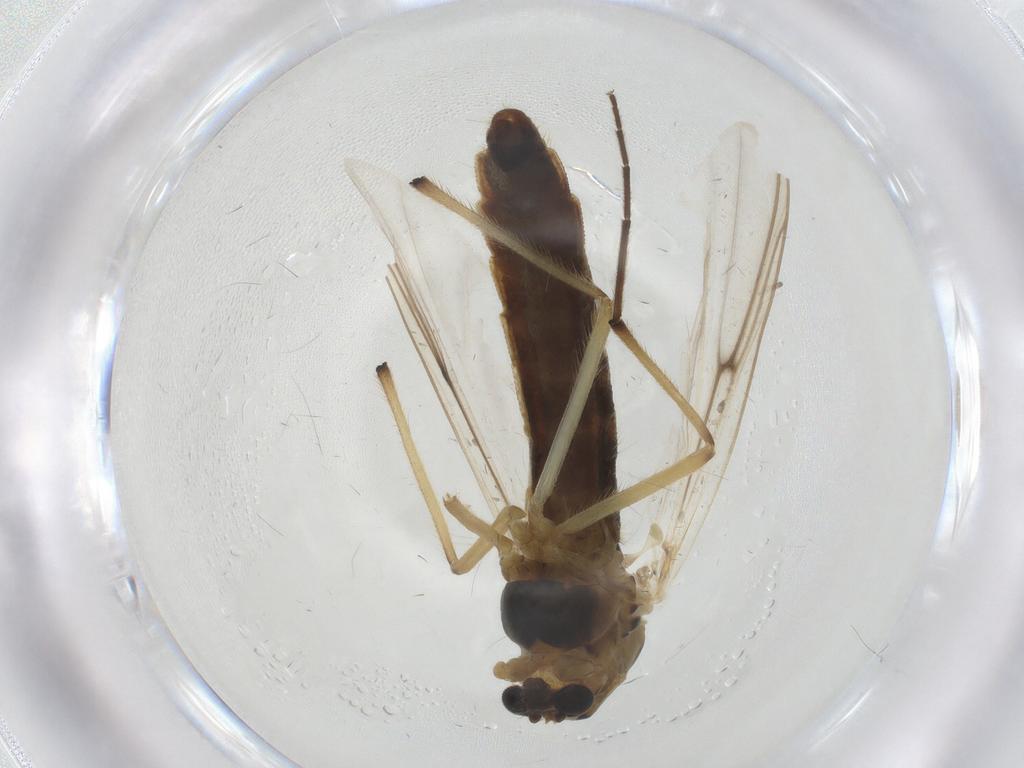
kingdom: Animalia
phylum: Arthropoda
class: Insecta
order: Diptera
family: Chironomidae
